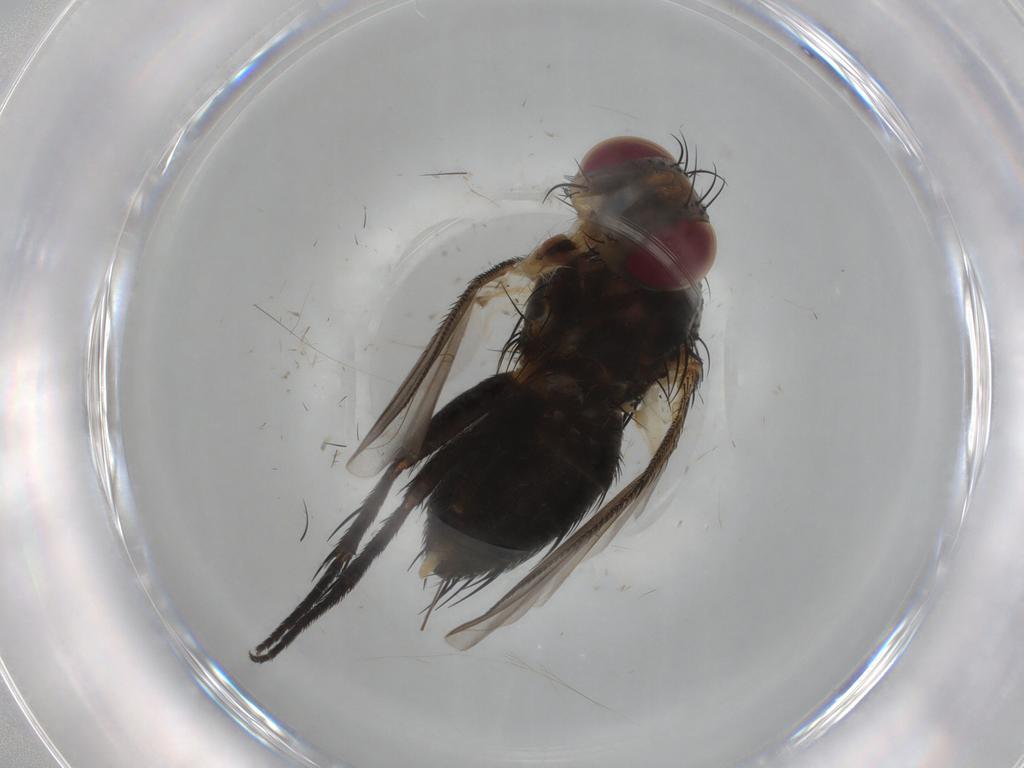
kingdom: Animalia
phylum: Arthropoda
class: Insecta
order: Diptera
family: Tachinidae
